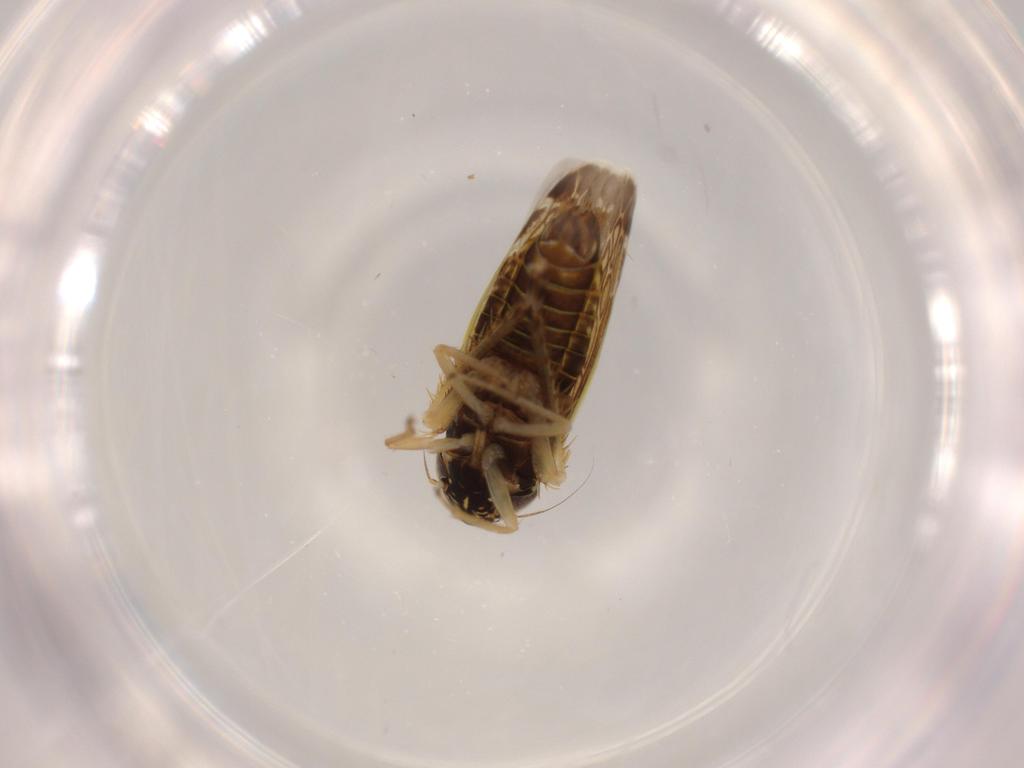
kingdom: Animalia
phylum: Arthropoda
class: Insecta
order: Hemiptera
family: Cicadellidae
